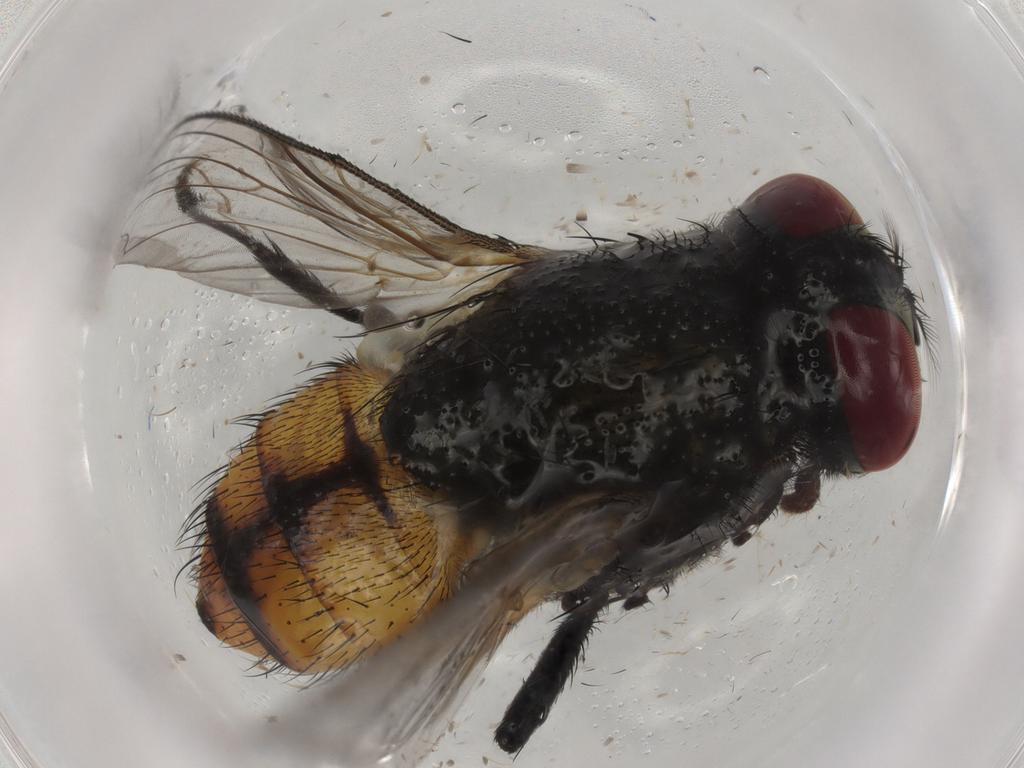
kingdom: Animalia
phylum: Arthropoda
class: Insecta
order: Diptera
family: Muscidae
